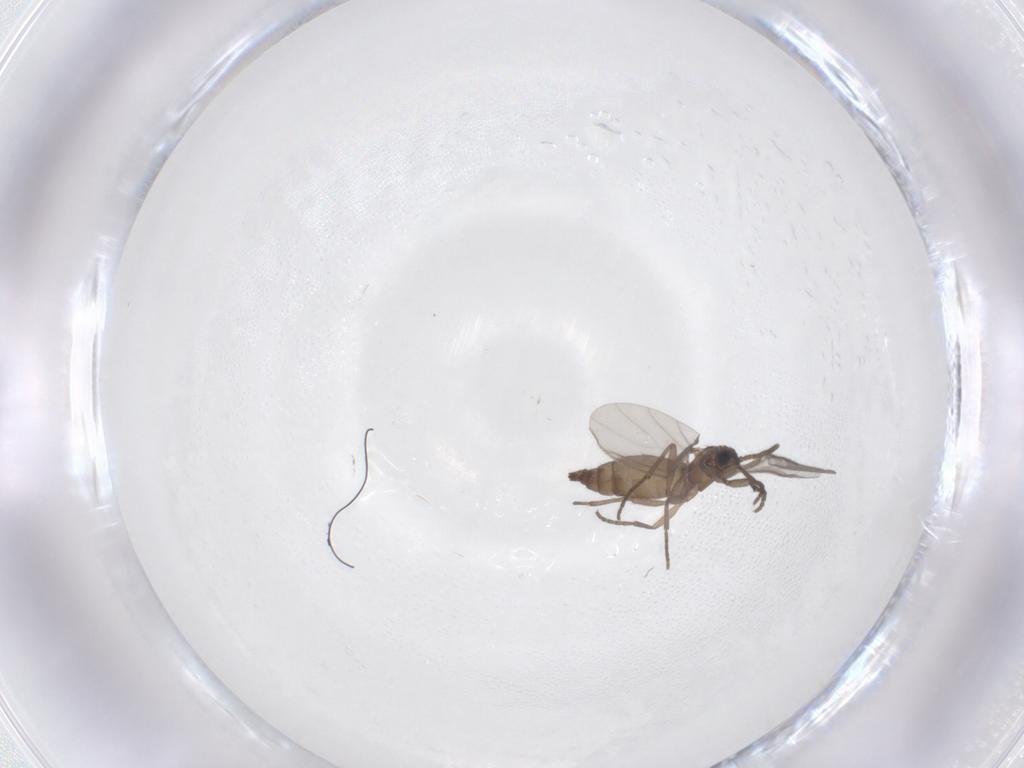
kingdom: Animalia
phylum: Arthropoda
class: Insecta
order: Diptera
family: Sciaridae
